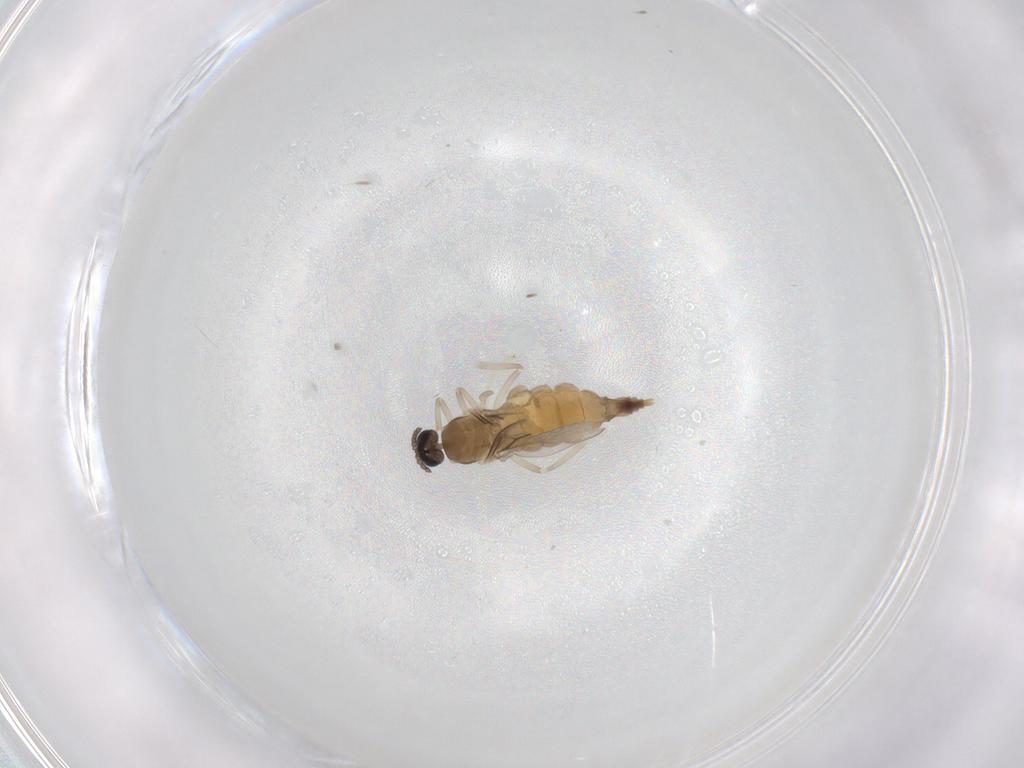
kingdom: Animalia
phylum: Arthropoda
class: Insecta
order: Diptera
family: Cecidomyiidae
